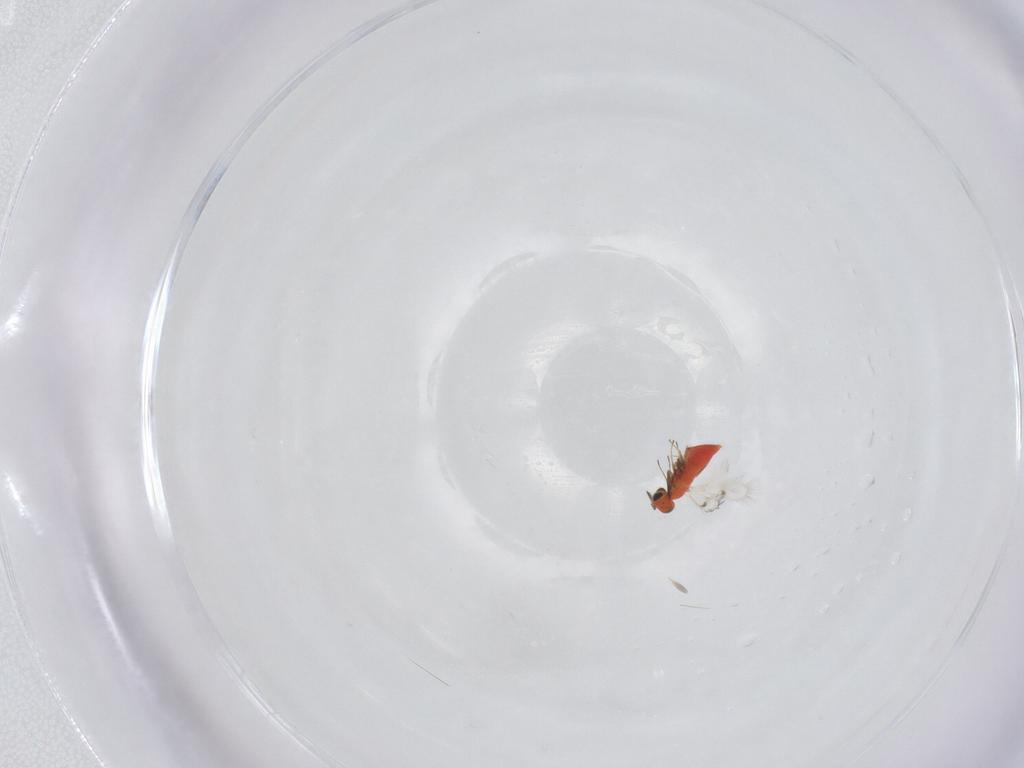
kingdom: Animalia
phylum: Arthropoda
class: Insecta
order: Hymenoptera
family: Trichogrammatidae
